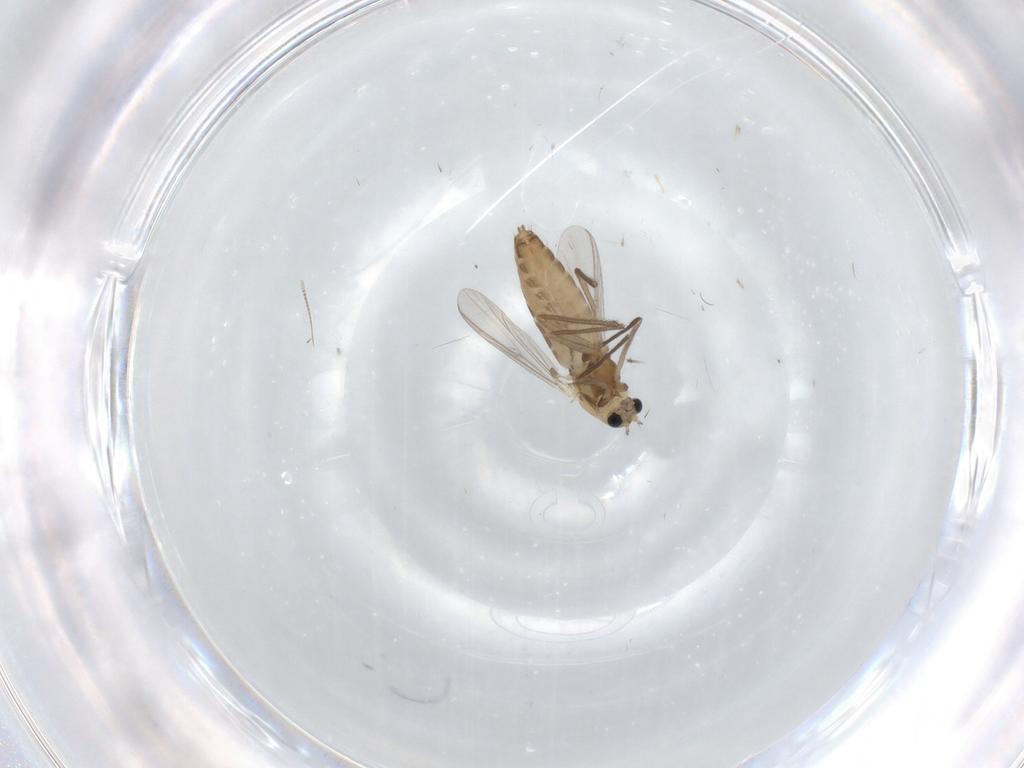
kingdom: Animalia
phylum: Arthropoda
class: Insecta
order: Diptera
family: Chironomidae
